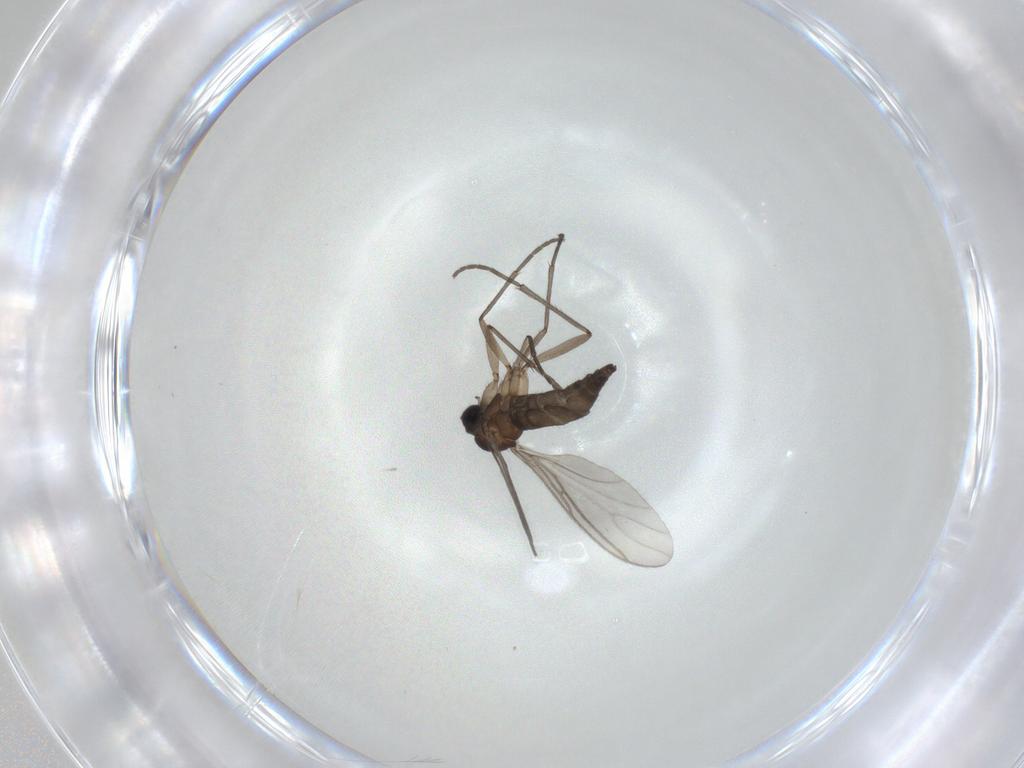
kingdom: Animalia
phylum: Arthropoda
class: Insecta
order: Diptera
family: Sciaridae
